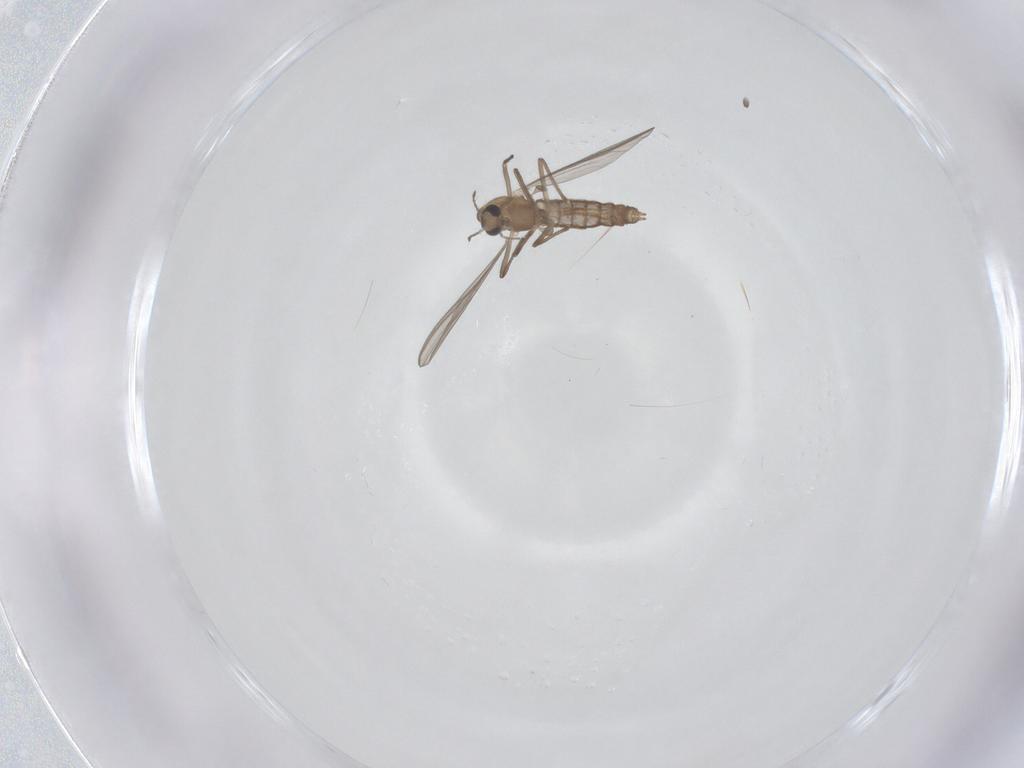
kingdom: Animalia
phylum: Arthropoda
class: Insecta
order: Diptera
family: Chironomidae
